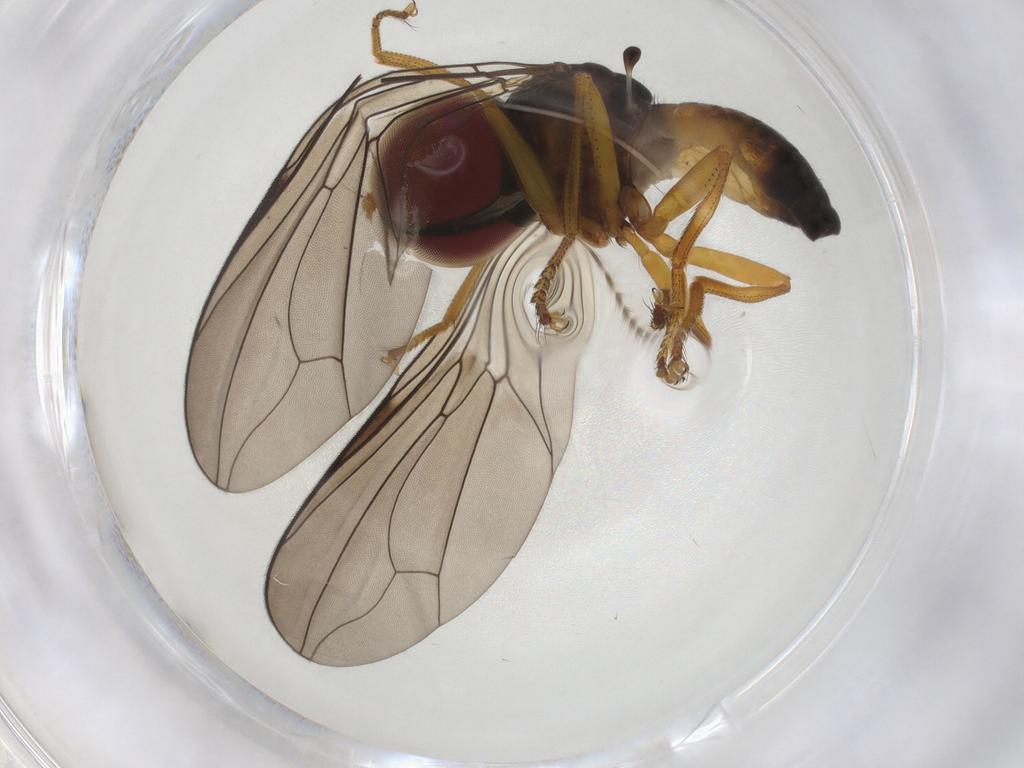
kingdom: Animalia
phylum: Arthropoda
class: Insecta
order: Diptera
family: Pipunculidae
